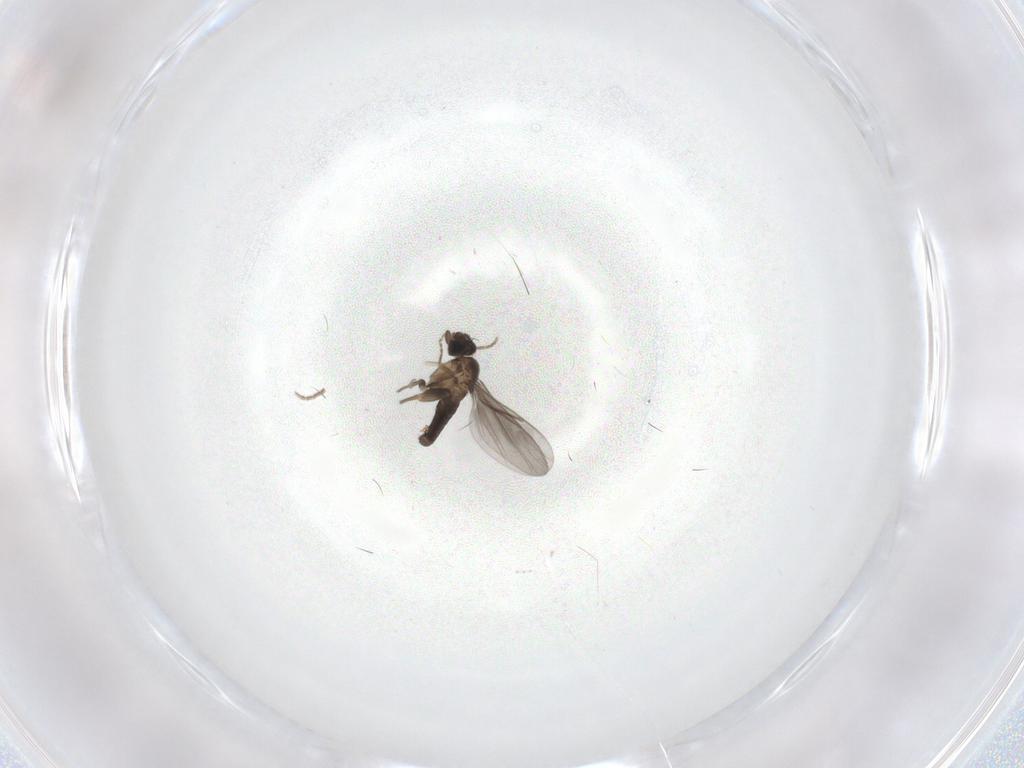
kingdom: Animalia
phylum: Arthropoda
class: Insecta
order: Diptera
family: Cecidomyiidae
